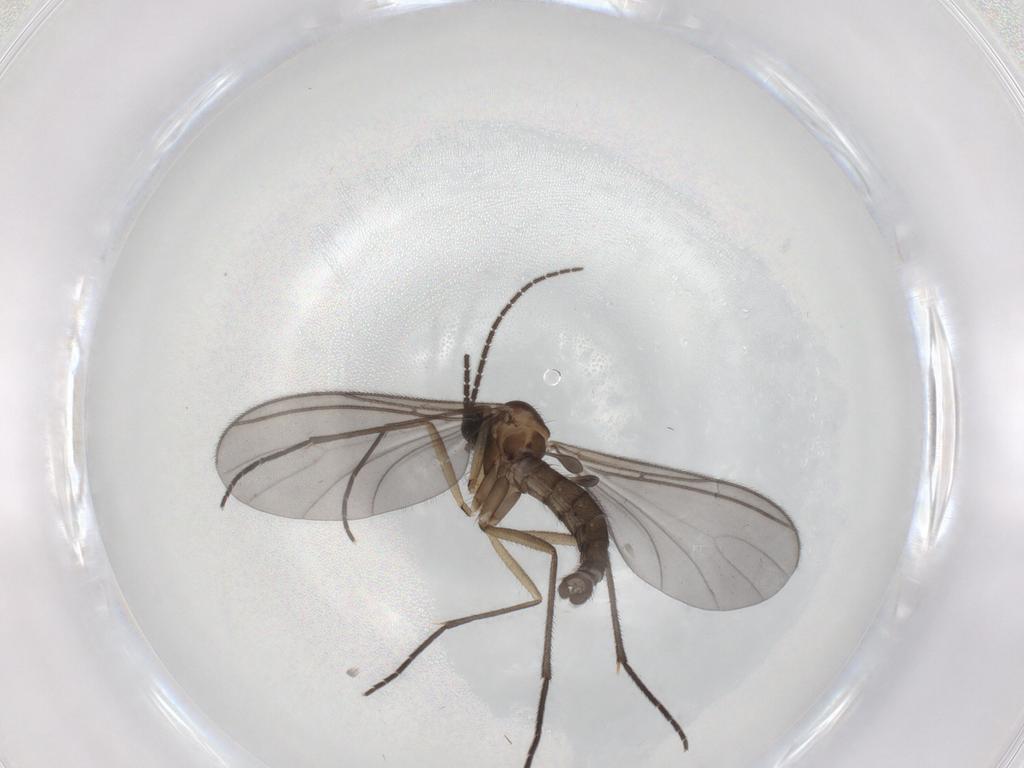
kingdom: Animalia
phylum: Arthropoda
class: Insecta
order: Diptera
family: Sciaridae
